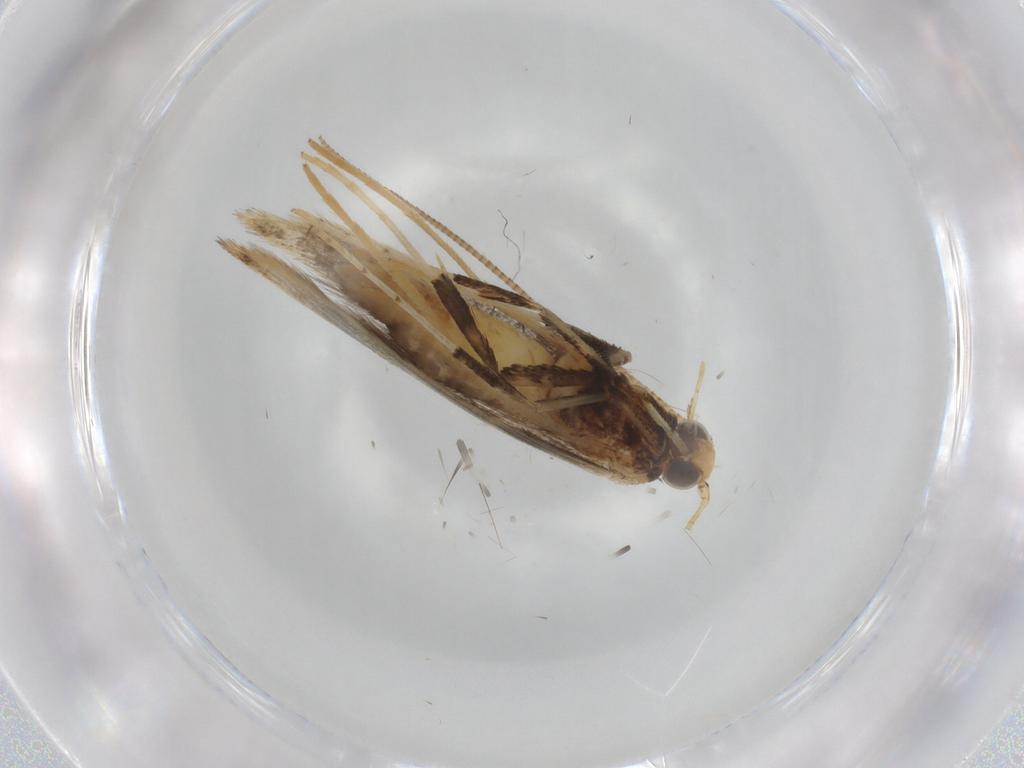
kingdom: Animalia
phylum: Arthropoda
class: Insecta
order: Lepidoptera
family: Gracillariidae
